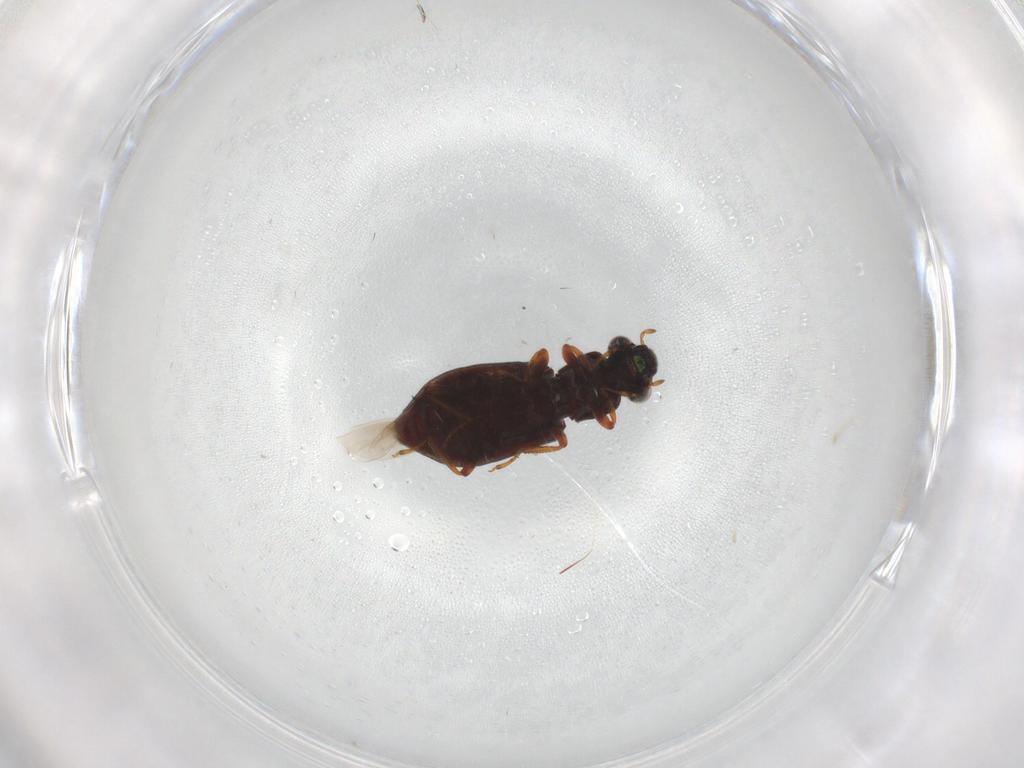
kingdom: Animalia
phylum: Arthropoda
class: Insecta
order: Coleoptera
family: Hydrophilidae
